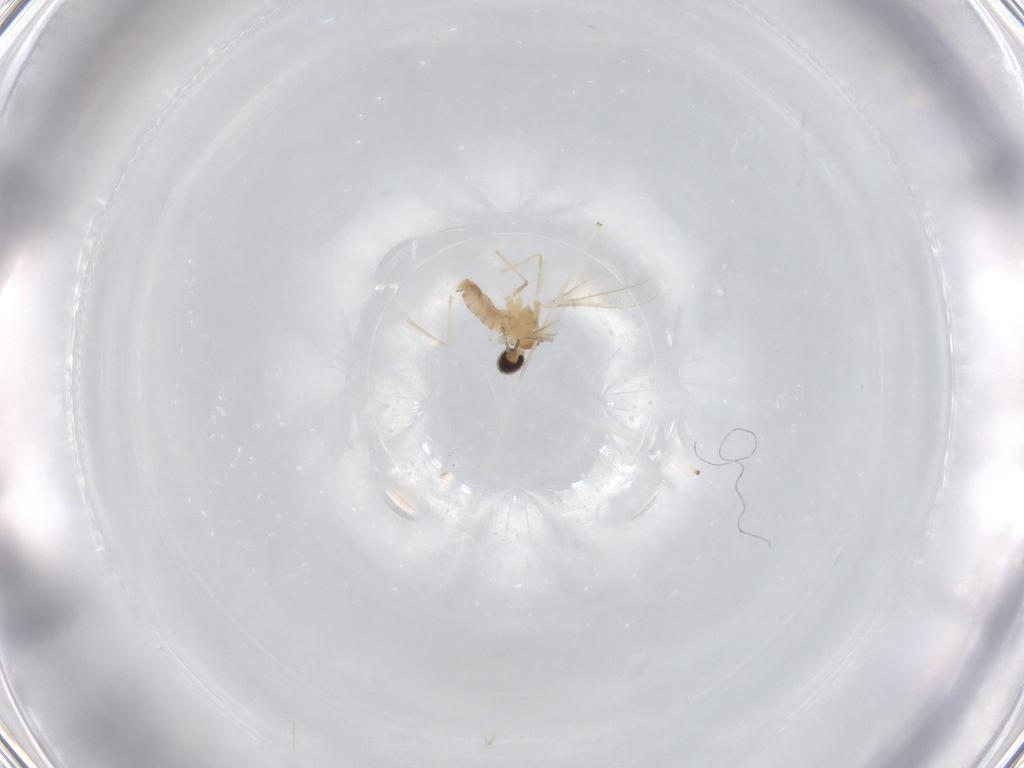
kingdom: Animalia
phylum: Arthropoda
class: Insecta
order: Diptera
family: Cecidomyiidae
